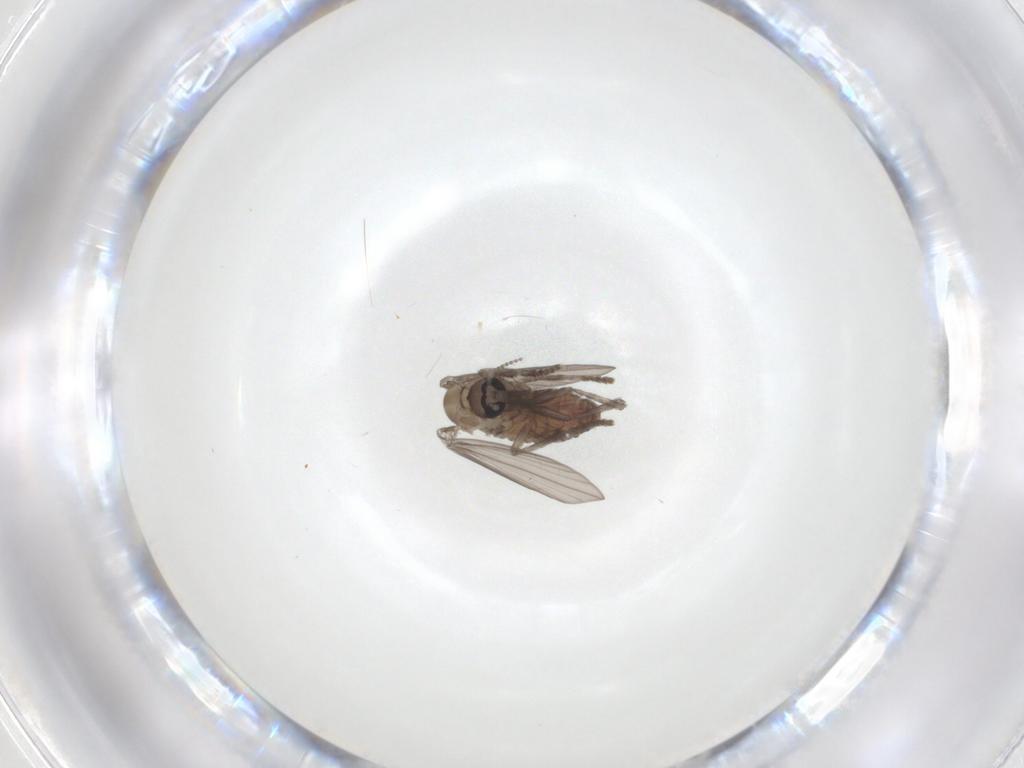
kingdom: Animalia
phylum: Arthropoda
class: Insecta
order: Diptera
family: Psychodidae
